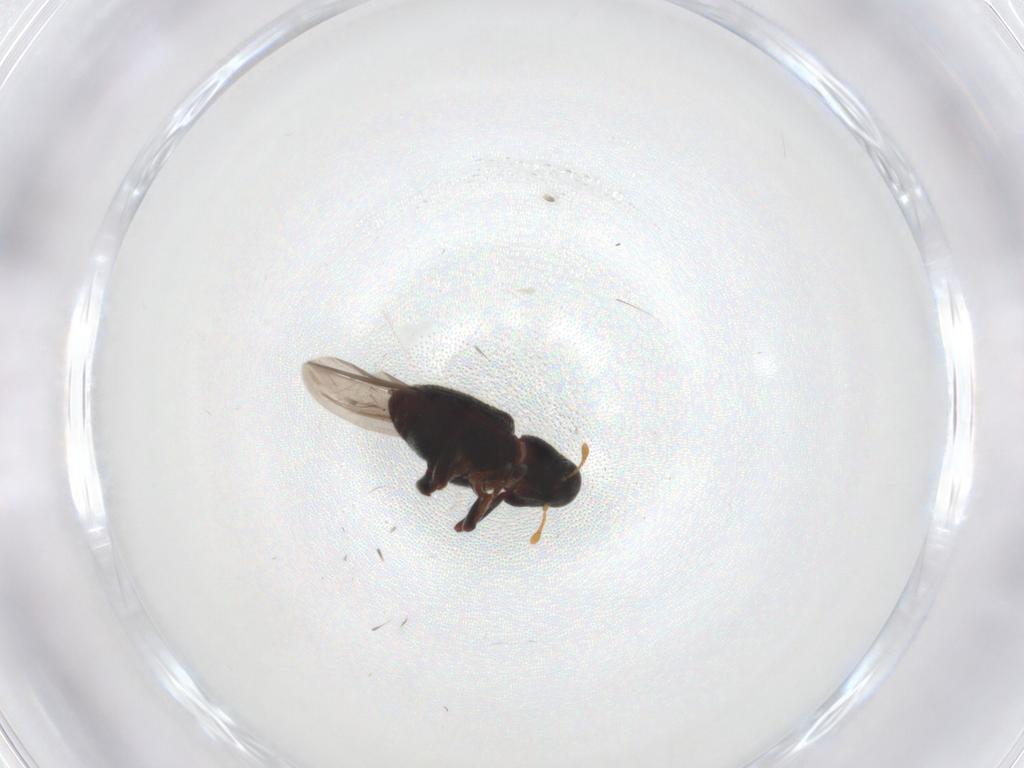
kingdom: Animalia
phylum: Arthropoda
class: Insecta
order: Coleoptera
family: Curculionidae
